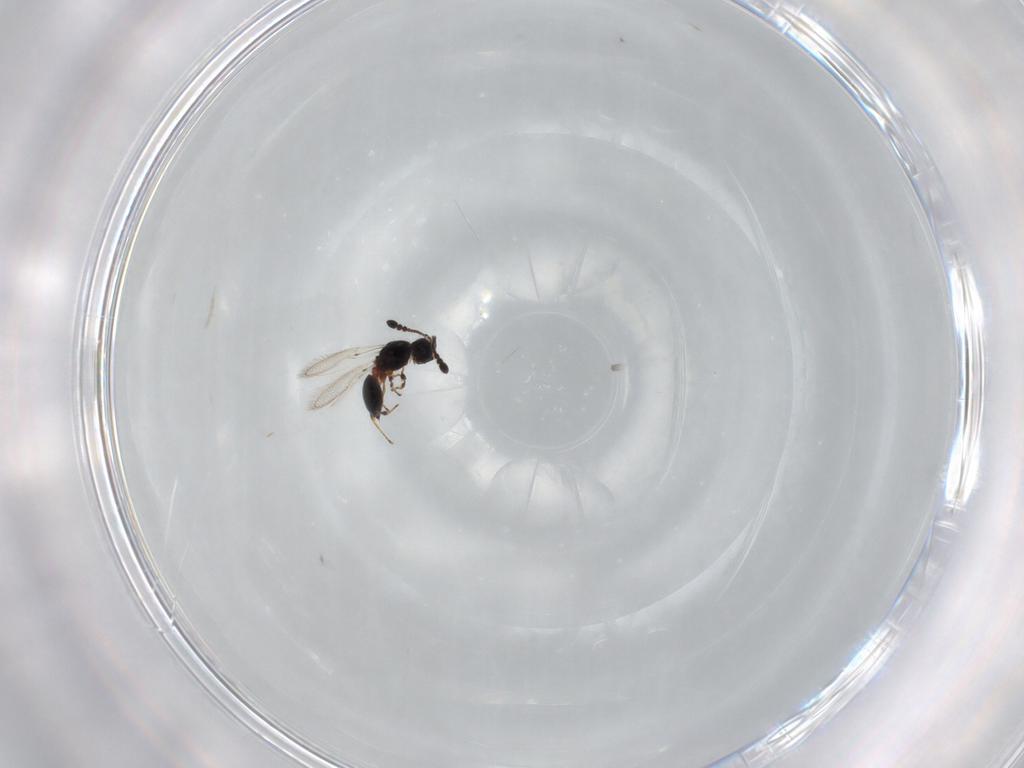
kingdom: Animalia
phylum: Arthropoda
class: Insecta
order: Hymenoptera
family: Diapriidae
